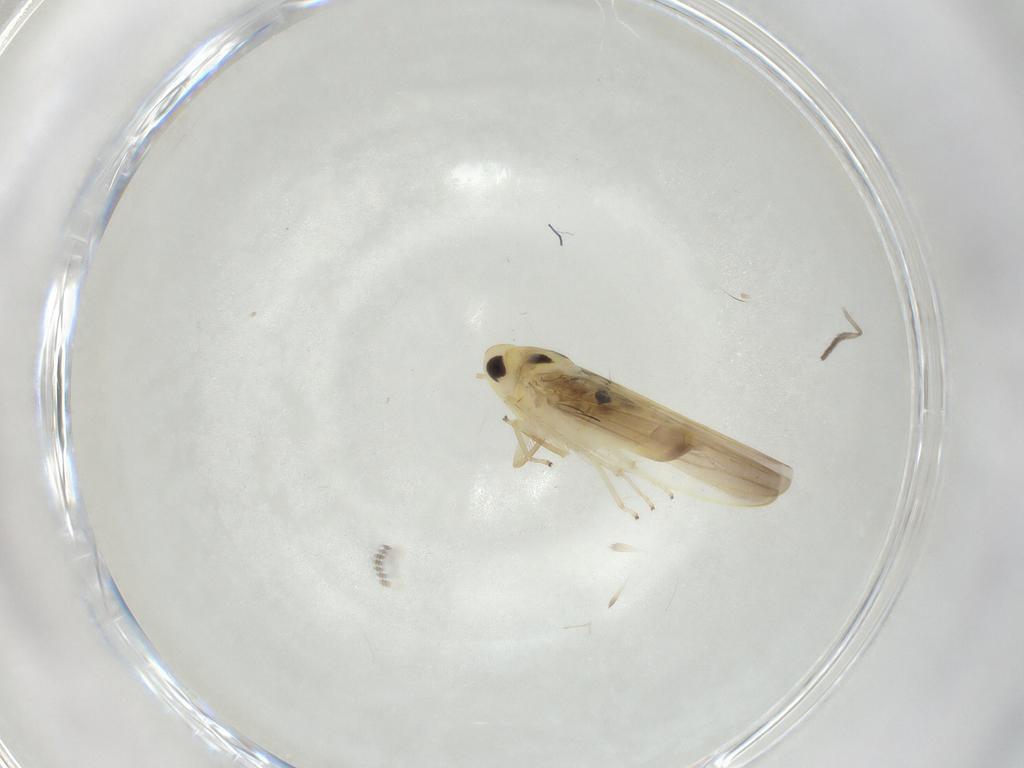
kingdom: Animalia
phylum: Arthropoda
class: Insecta
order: Hemiptera
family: Cicadellidae
